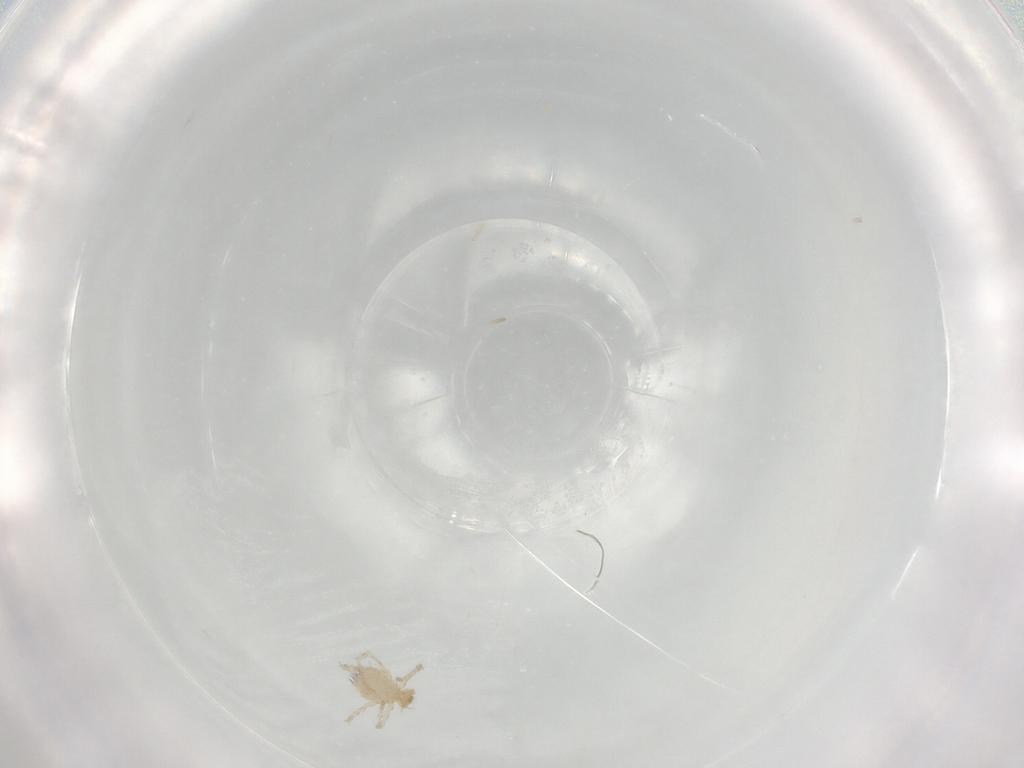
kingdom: Animalia
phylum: Arthropoda
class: Arachnida
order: Trombidiformes
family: Erythraeidae
